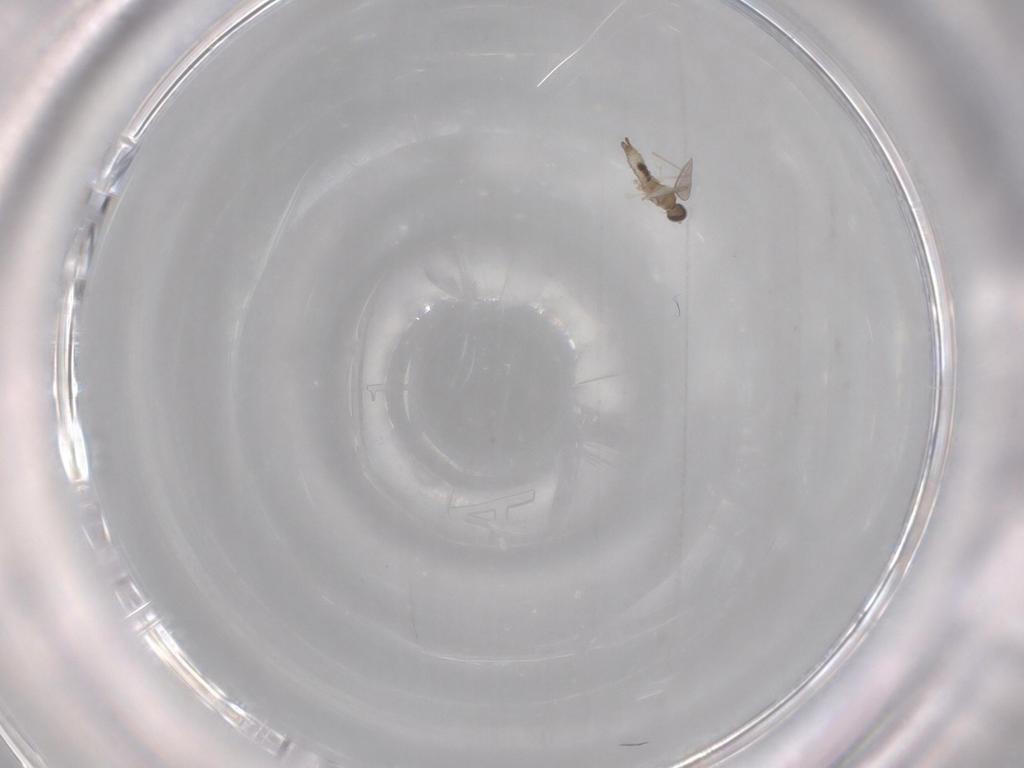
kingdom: Animalia
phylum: Arthropoda
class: Insecta
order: Diptera
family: Cecidomyiidae
